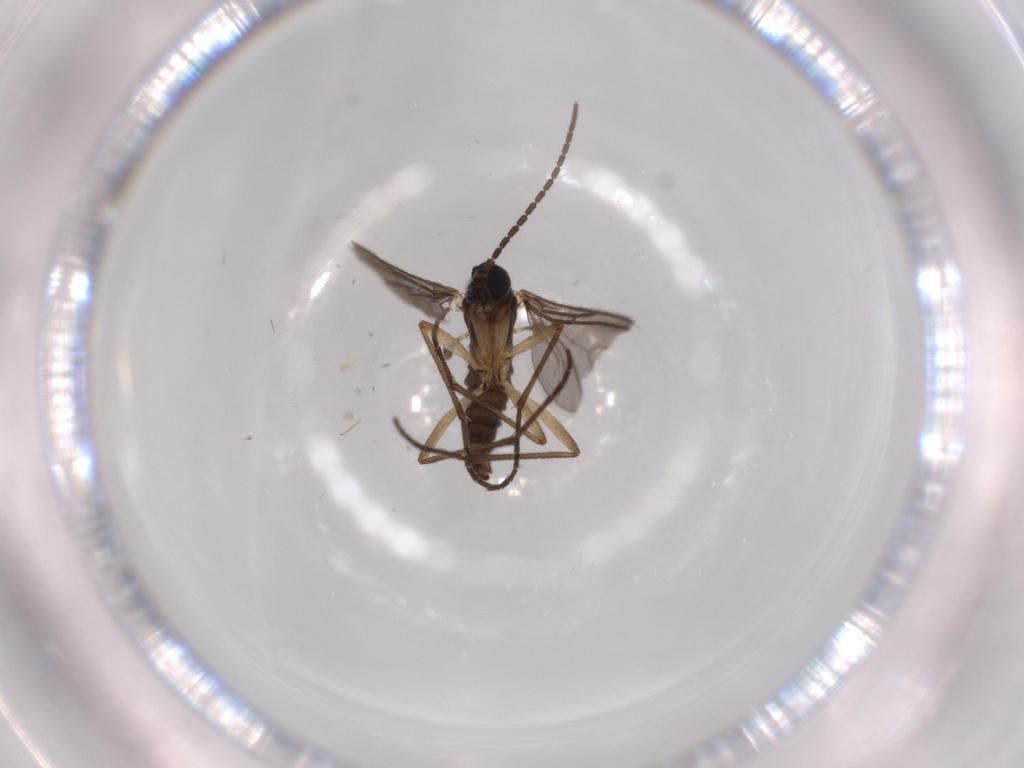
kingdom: Animalia
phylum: Arthropoda
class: Insecta
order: Diptera
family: Sciaridae
